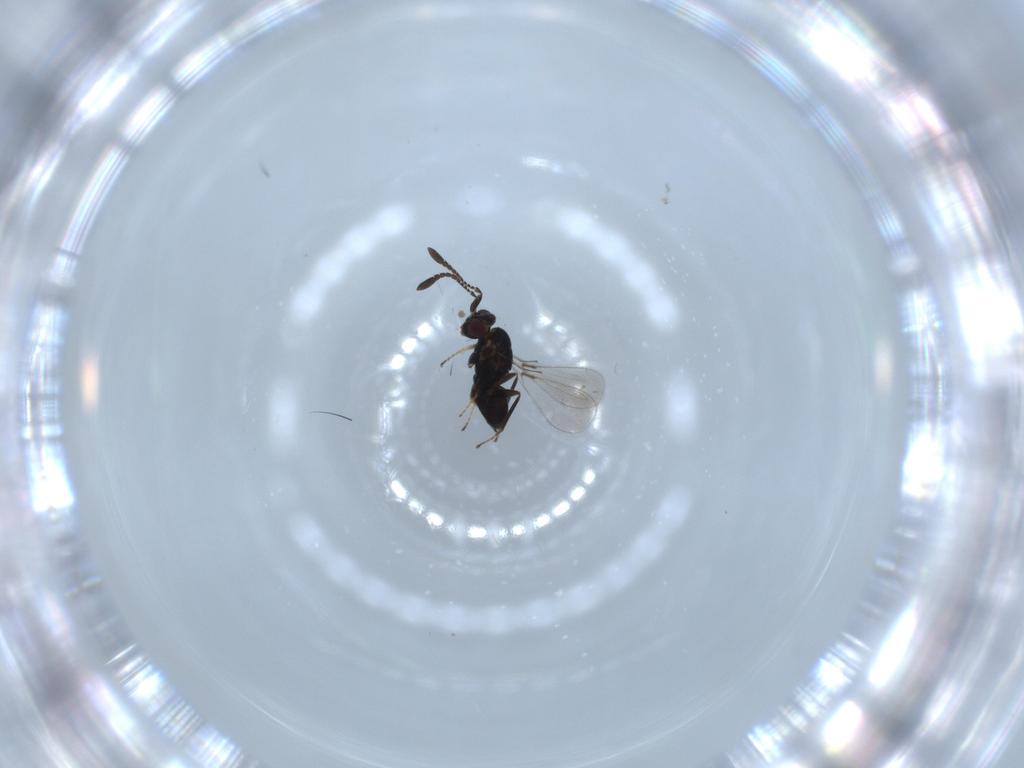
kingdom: Animalia
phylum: Arthropoda
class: Insecta
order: Hymenoptera
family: Mymaridae
